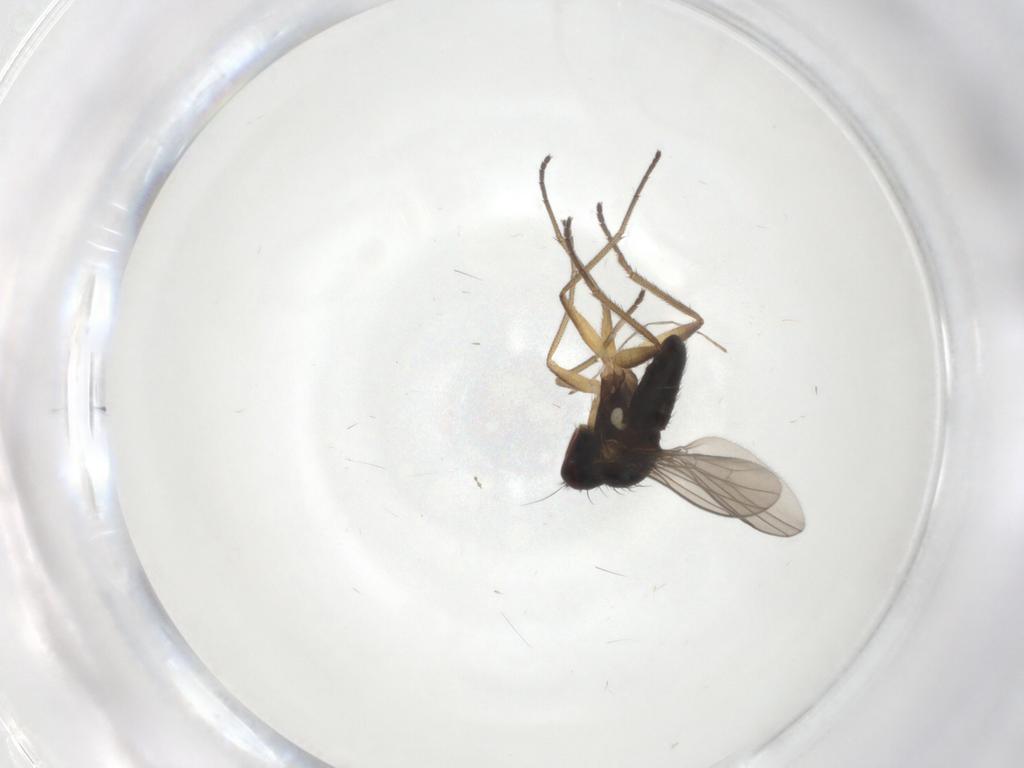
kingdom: Animalia
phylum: Arthropoda
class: Insecta
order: Diptera
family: Dolichopodidae
